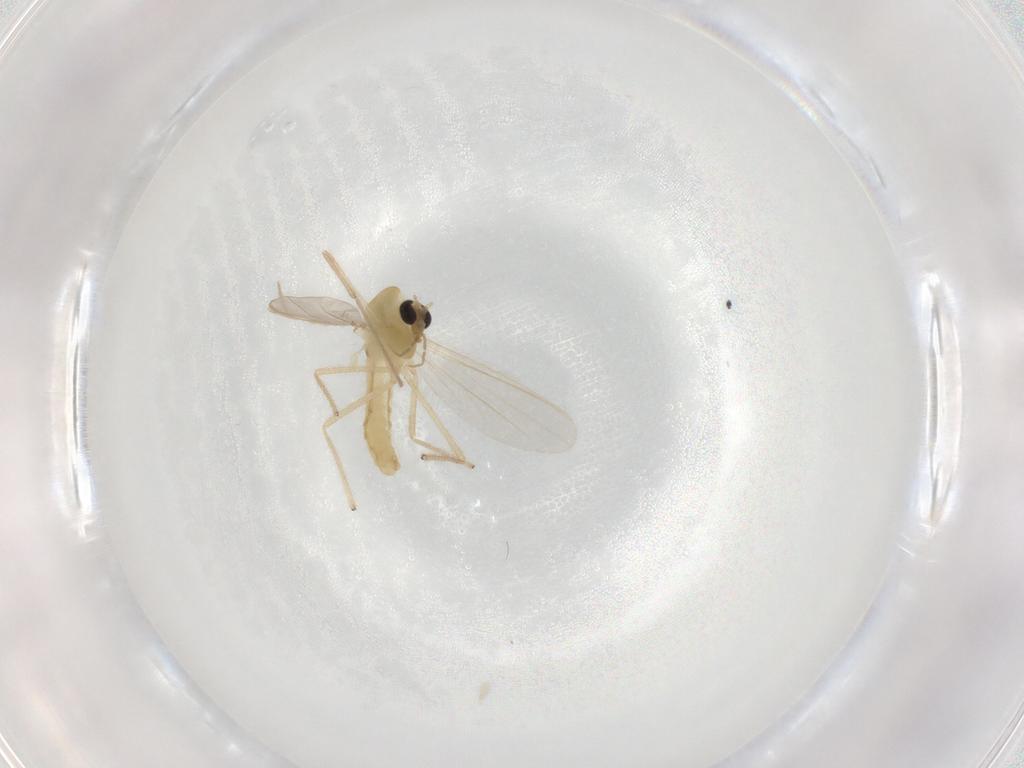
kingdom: Animalia
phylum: Arthropoda
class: Insecta
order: Diptera
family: Chironomidae
